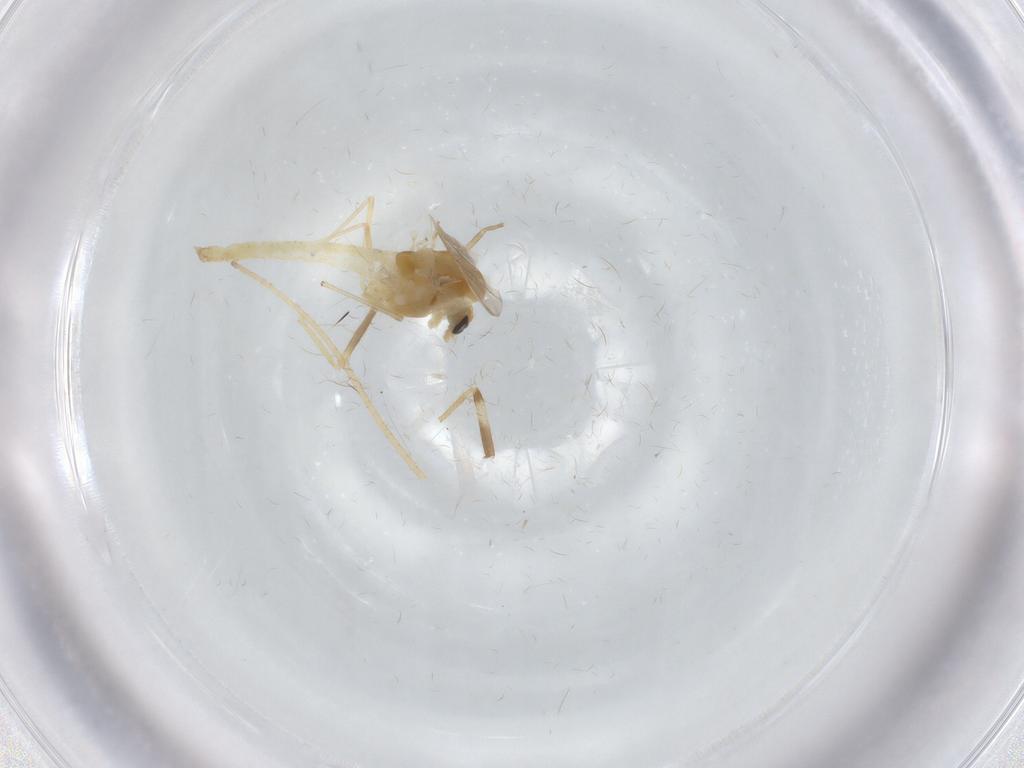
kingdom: Animalia
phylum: Arthropoda
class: Insecta
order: Diptera
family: Chironomidae
